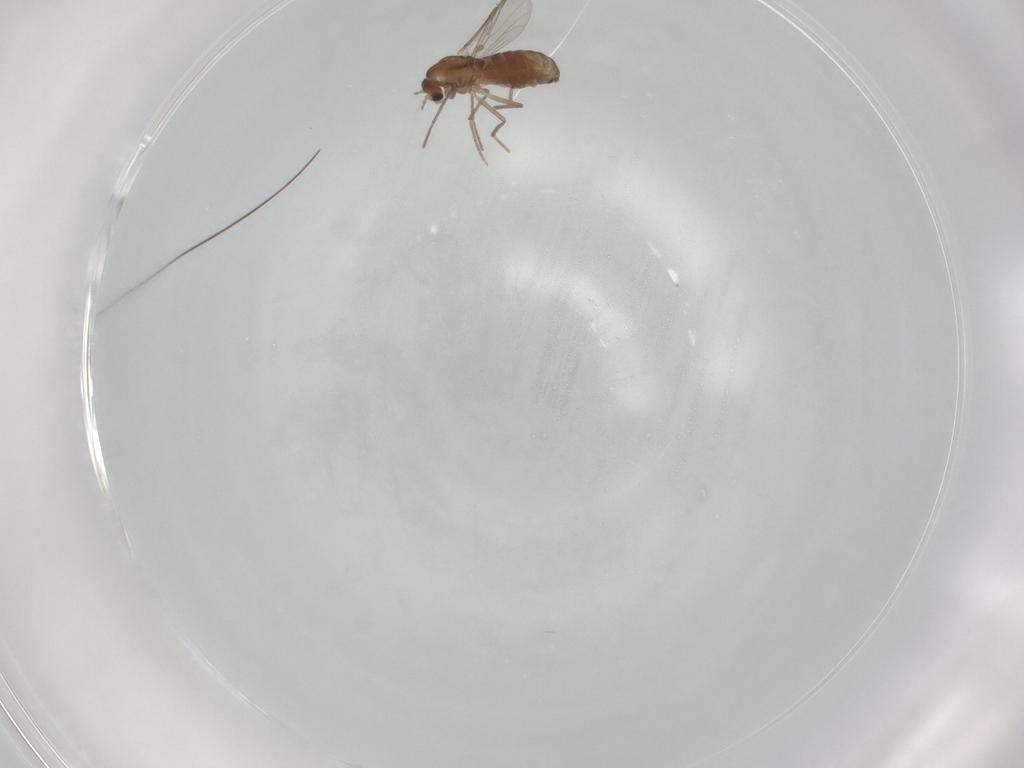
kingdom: Animalia
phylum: Arthropoda
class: Insecta
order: Diptera
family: Chironomidae
